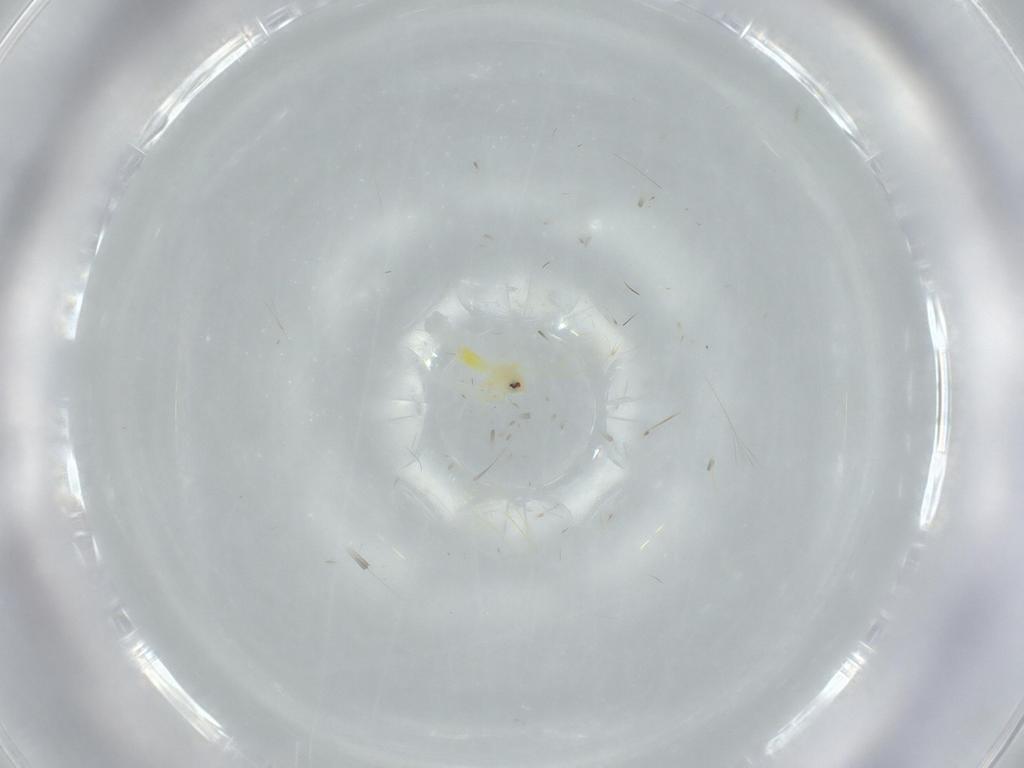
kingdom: Animalia
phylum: Arthropoda
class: Insecta
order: Hemiptera
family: Aleyrodidae
